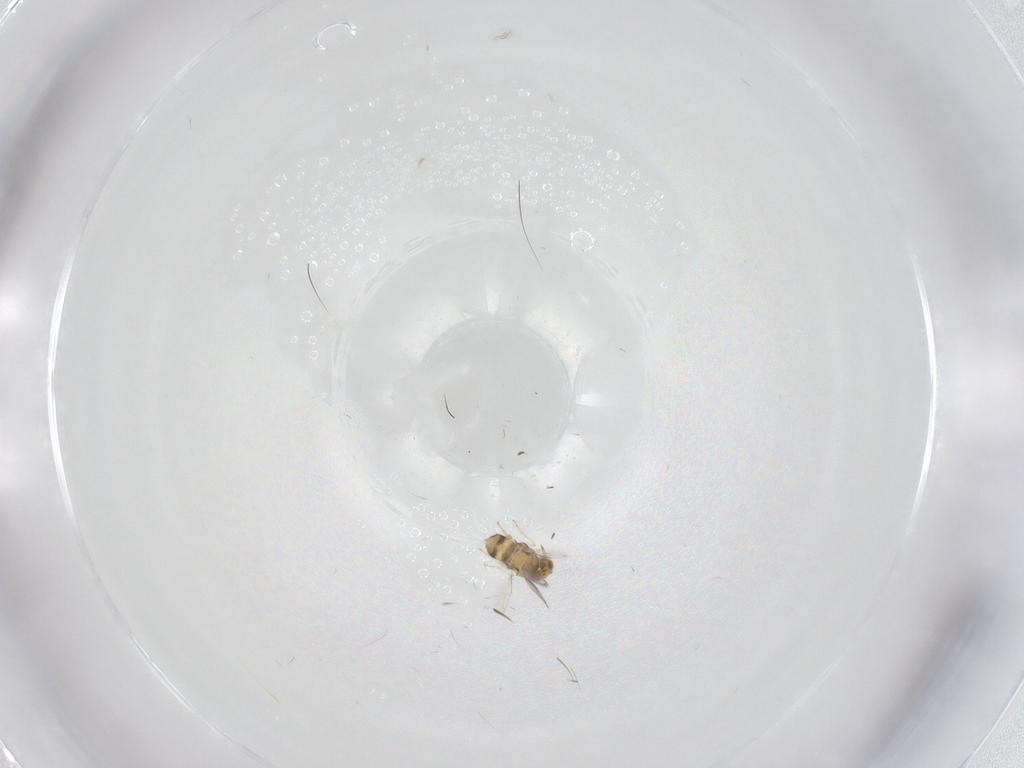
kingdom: Animalia
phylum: Arthropoda
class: Insecta
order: Hymenoptera
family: Aphelinidae
